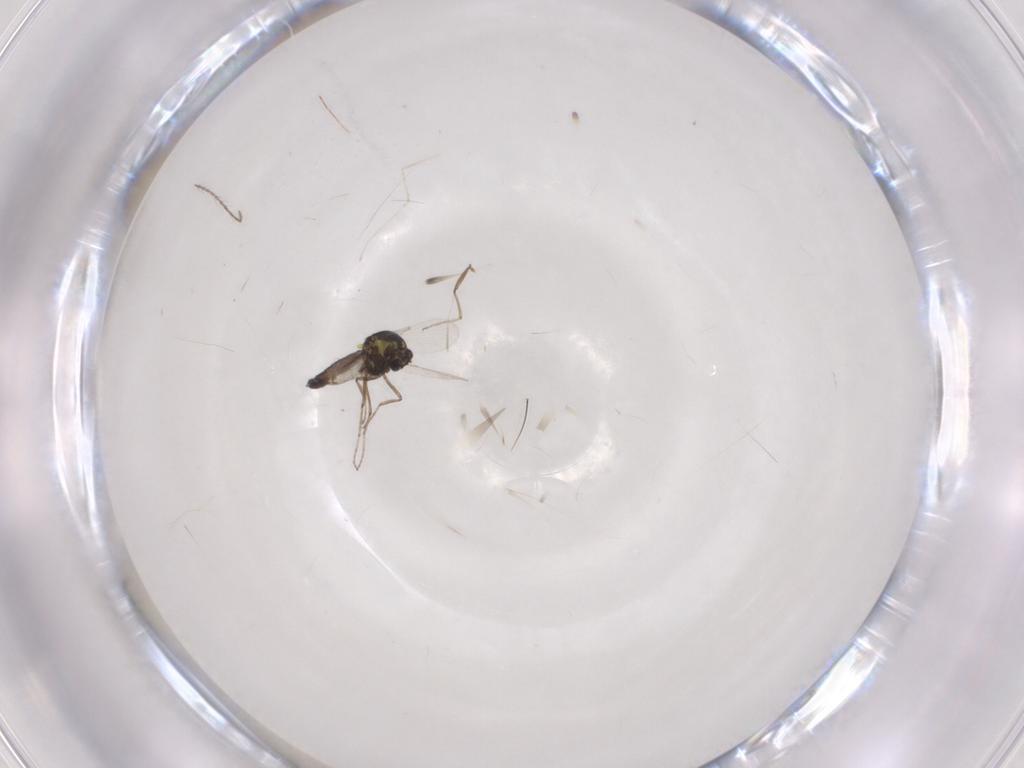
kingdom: Animalia
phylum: Arthropoda
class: Insecta
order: Diptera
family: Ceratopogonidae
